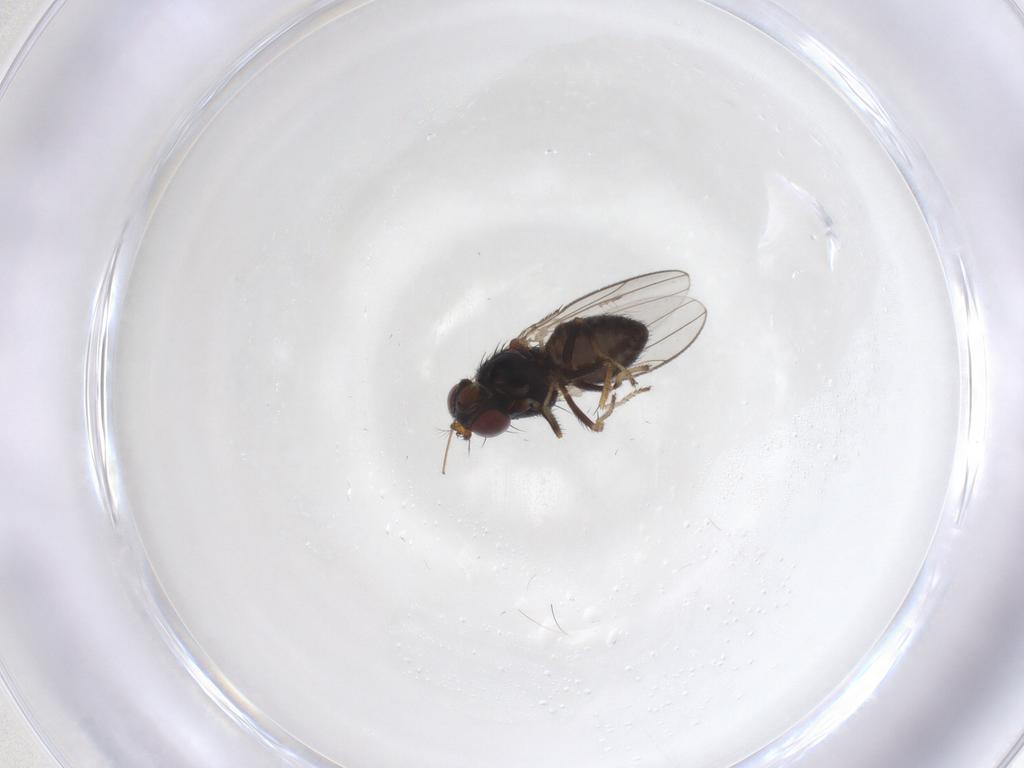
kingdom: Animalia
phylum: Arthropoda
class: Insecta
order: Diptera
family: Ephydridae
